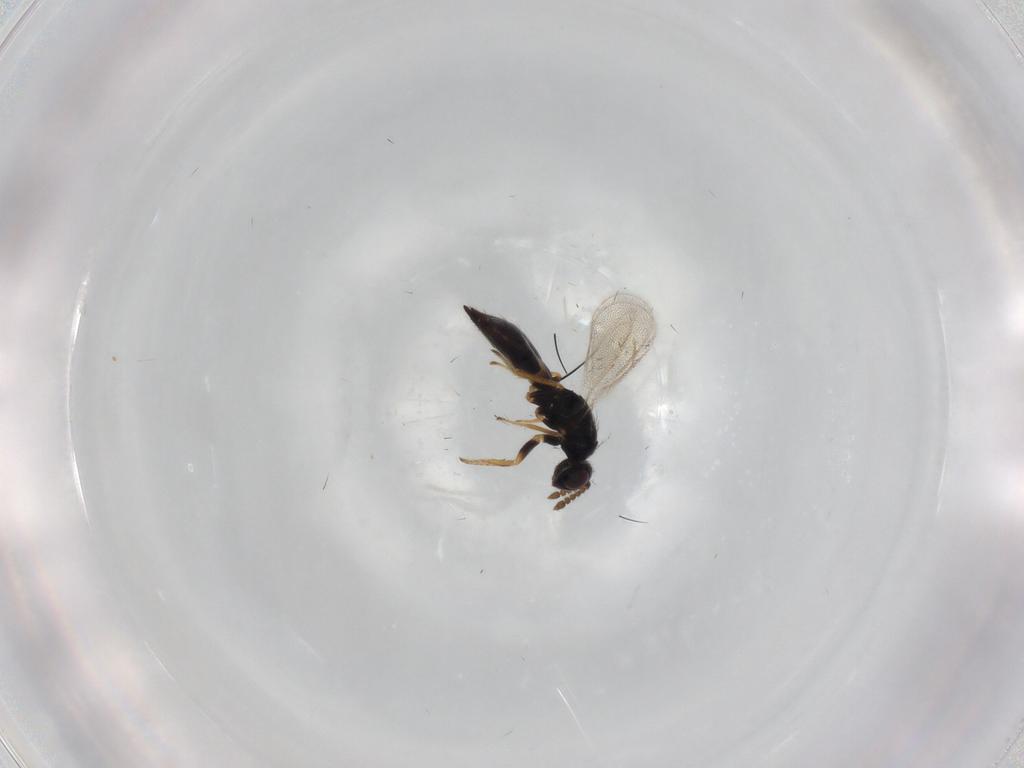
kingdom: Animalia
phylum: Arthropoda
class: Insecta
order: Hymenoptera
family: Eulophidae
